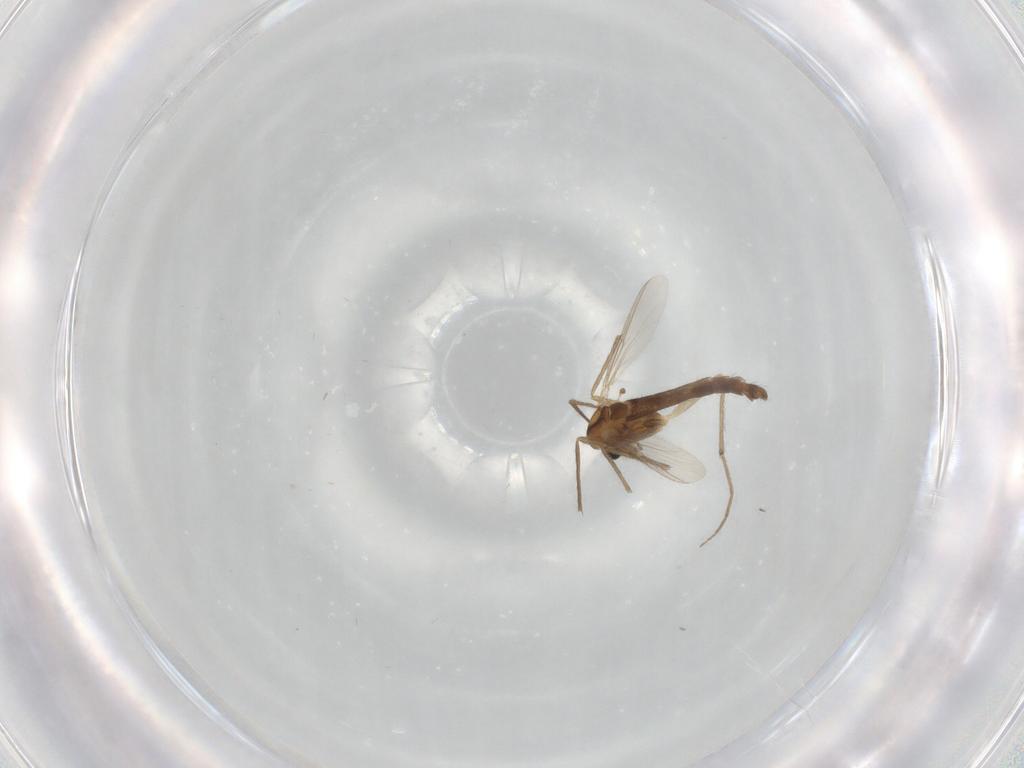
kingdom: Animalia
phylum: Arthropoda
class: Insecta
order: Diptera
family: Chironomidae
